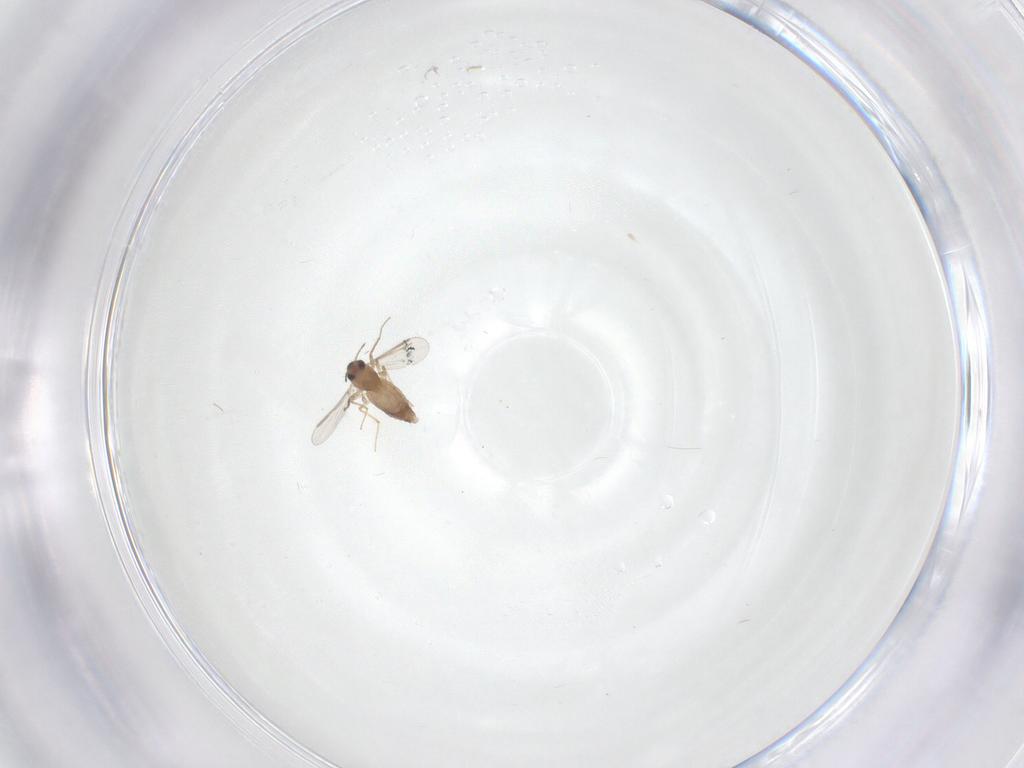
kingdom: Animalia
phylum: Arthropoda
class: Insecta
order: Diptera
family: Chironomidae
